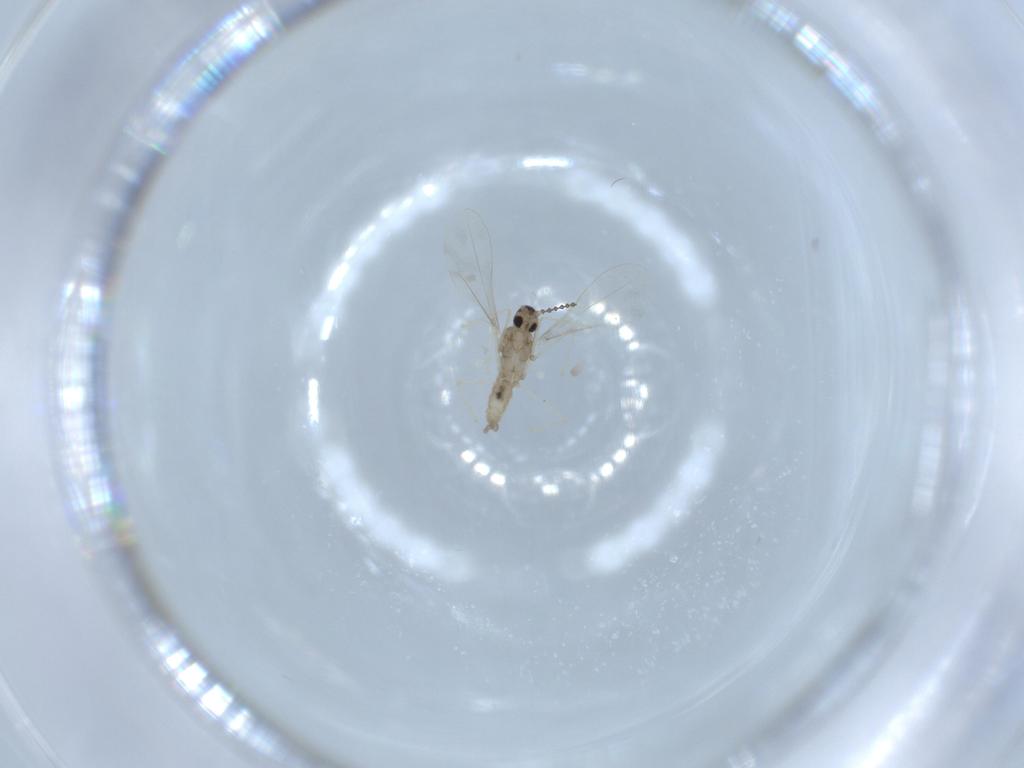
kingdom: Animalia
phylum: Arthropoda
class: Insecta
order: Diptera
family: Cecidomyiidae
